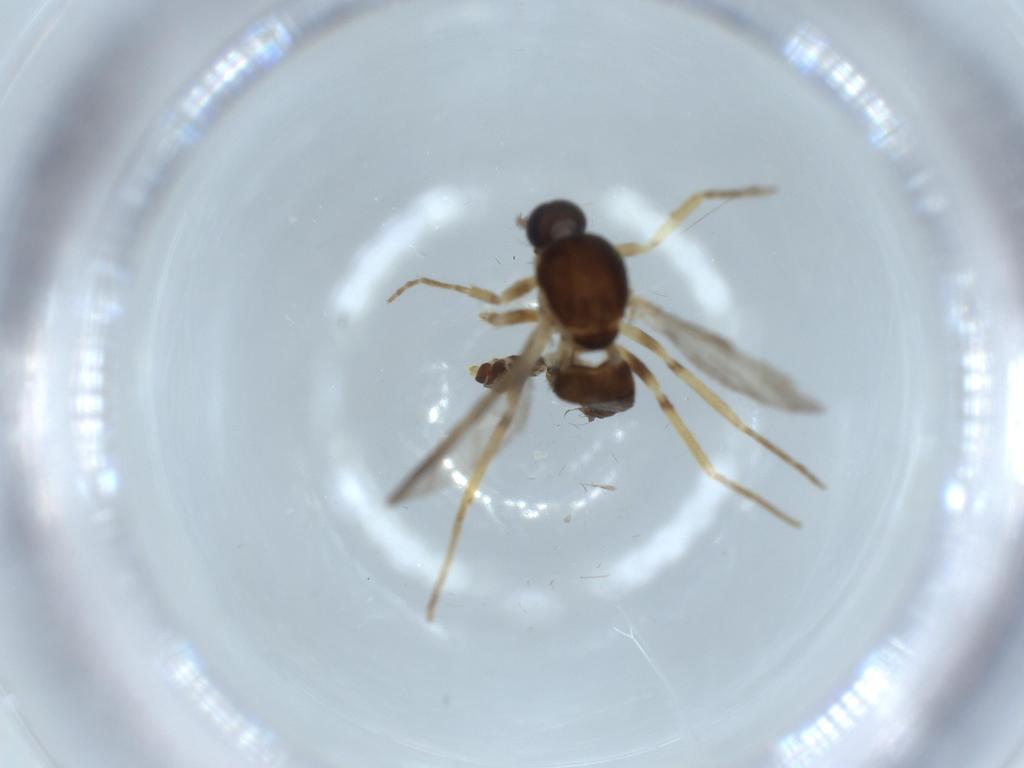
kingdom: Animalia
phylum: Arthropoda
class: Insecta
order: Diptera
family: Ceratopogonidae
